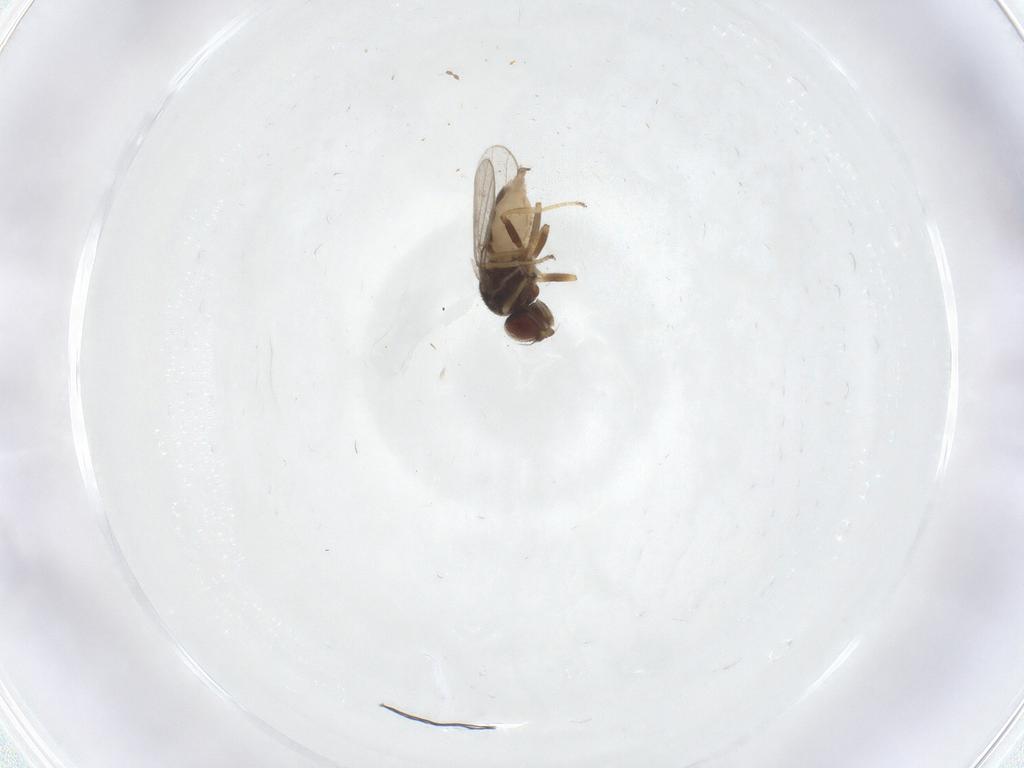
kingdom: Animalia
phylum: Arthropoda
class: Insecta
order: Diptera
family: Chloropidae
